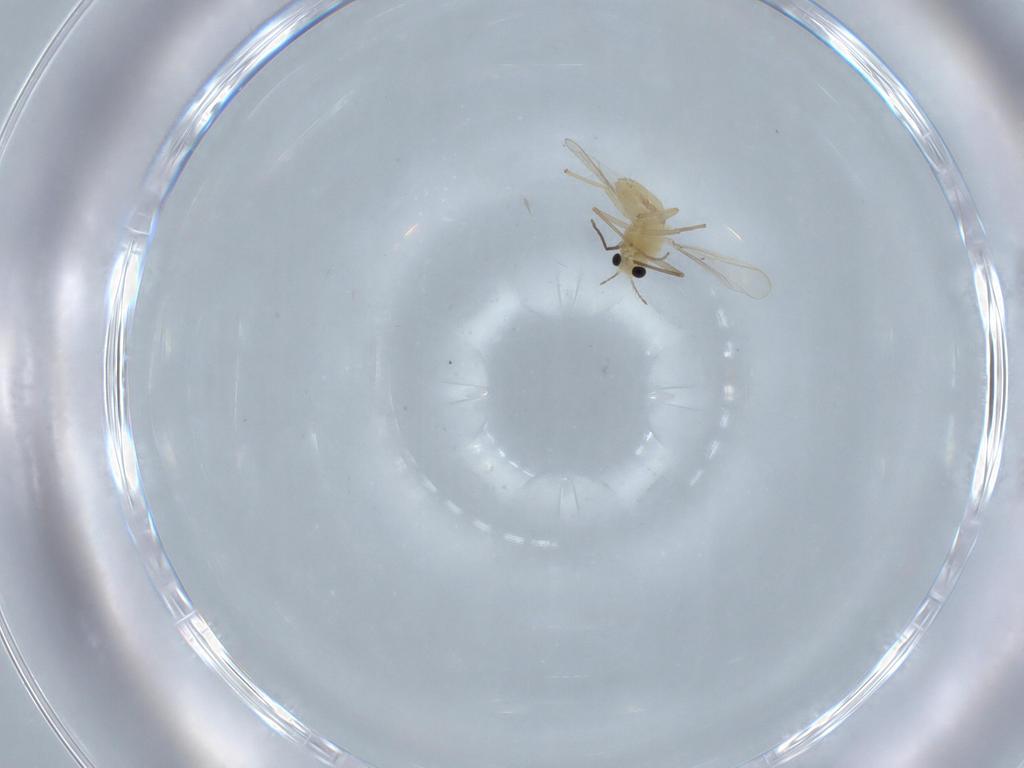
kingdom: Animalia
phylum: Arthropoda
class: Insecta
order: Diptera
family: Chironomidae
